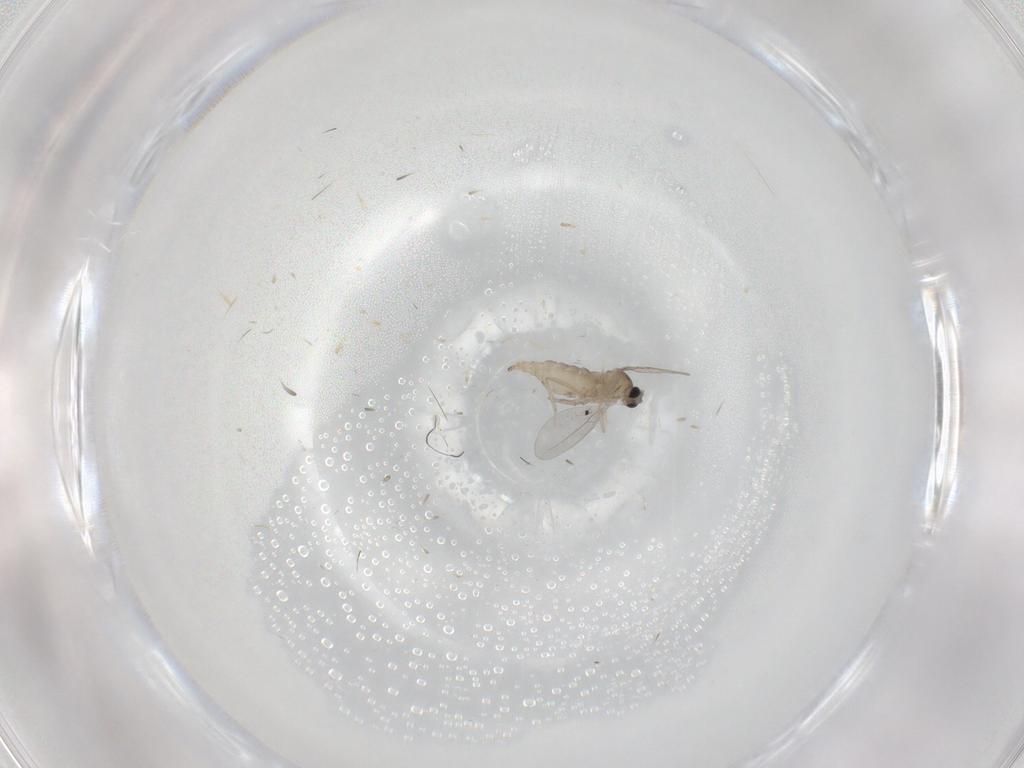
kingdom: Animalia
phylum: Arthropoda
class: Insecta
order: Diptera
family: Cecidomyiidae
